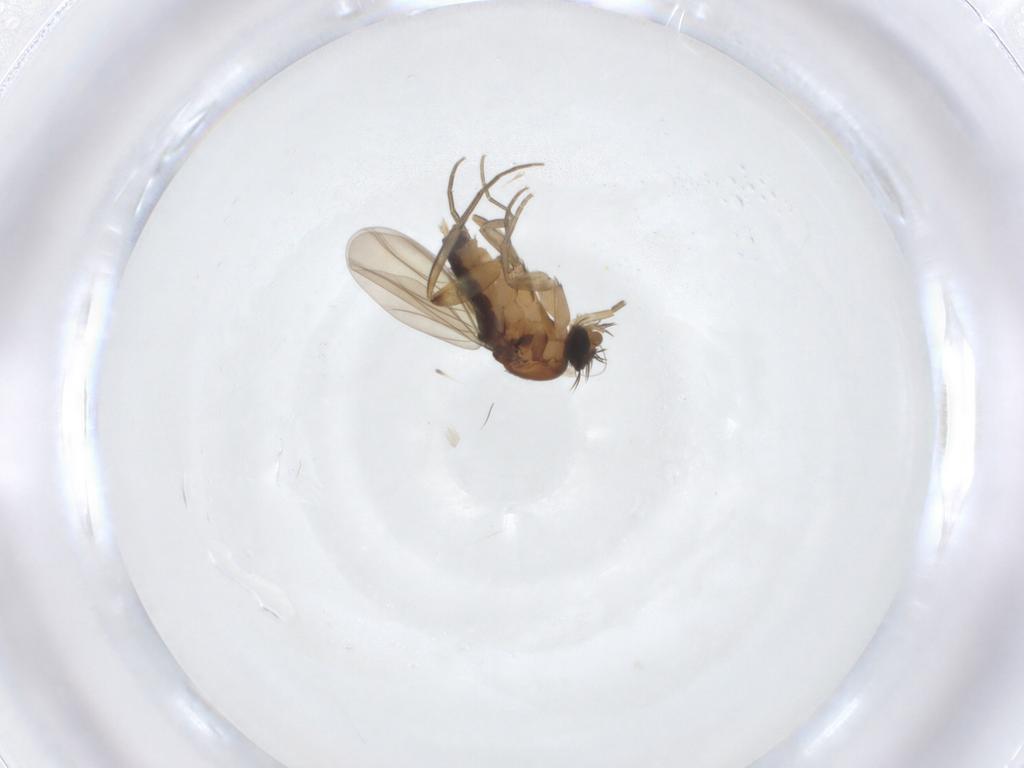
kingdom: Animalia
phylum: Arthropoda
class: Insecta
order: Diptera
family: Phoridae
